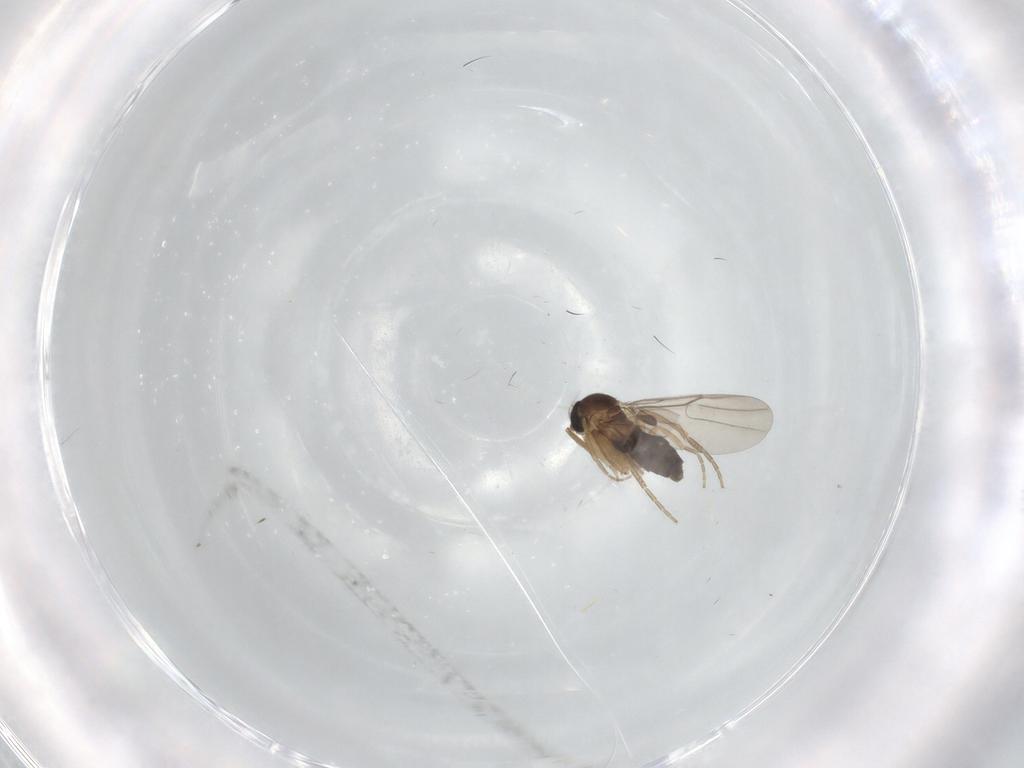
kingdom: Animalia
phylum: Arthropoda
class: Insecta
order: Diptera
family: Phoridae
